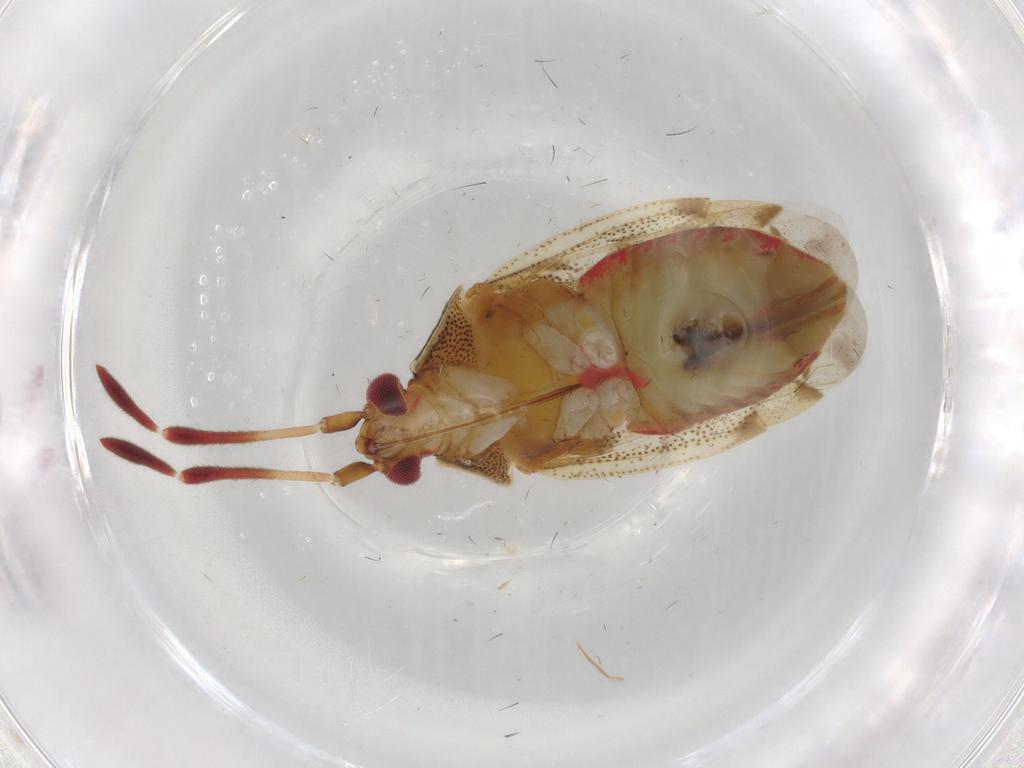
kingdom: Animalia
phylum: Arthropoda
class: Insecta
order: Hemiptera
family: Miridae
